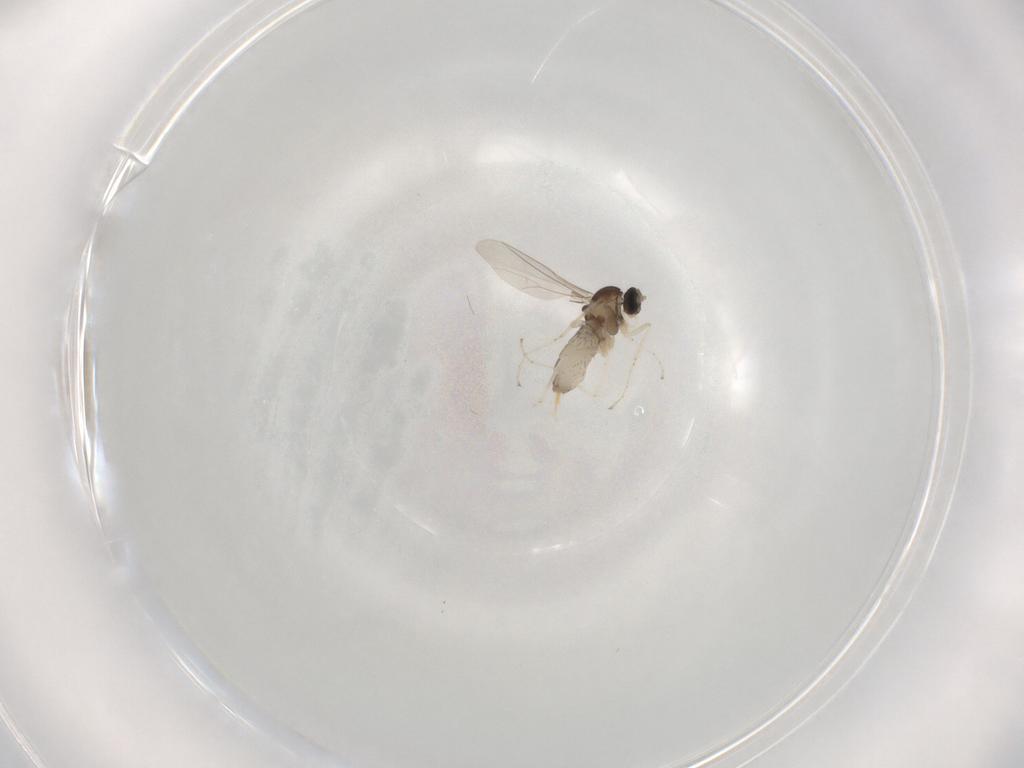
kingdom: Animalia
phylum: Arthropoda
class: Insecta
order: Diptera
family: Cecidomyiidae
